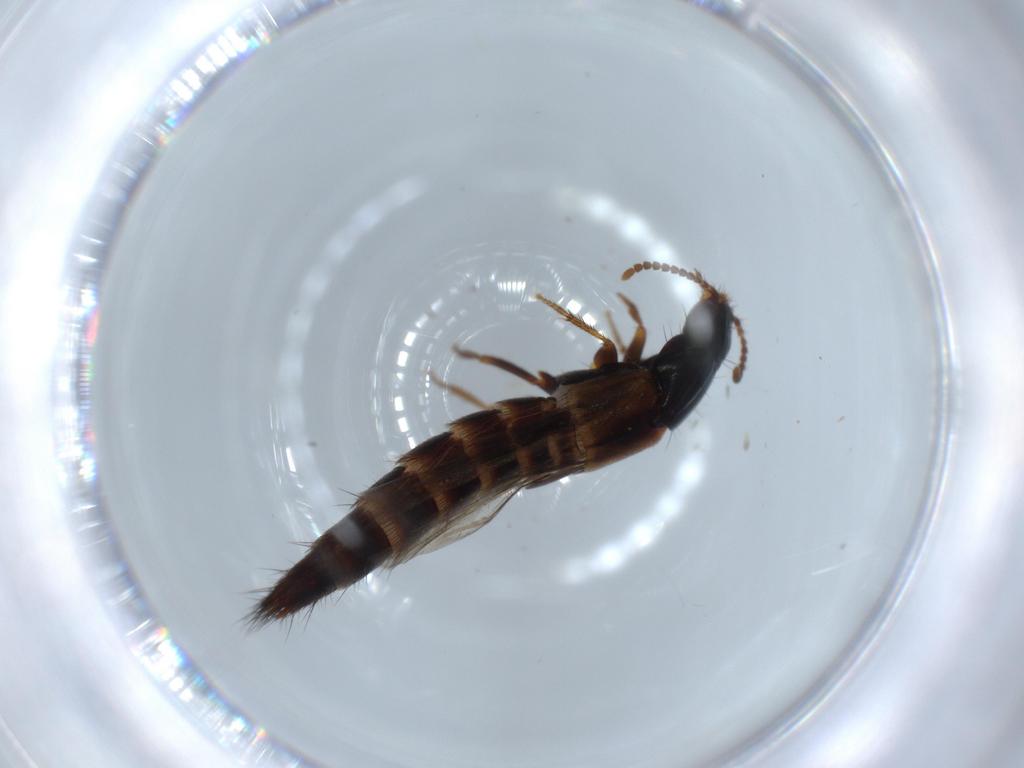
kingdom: Animalia
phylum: Arthropoda
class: Insecta
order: Coleoptera
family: Staphylinidae
